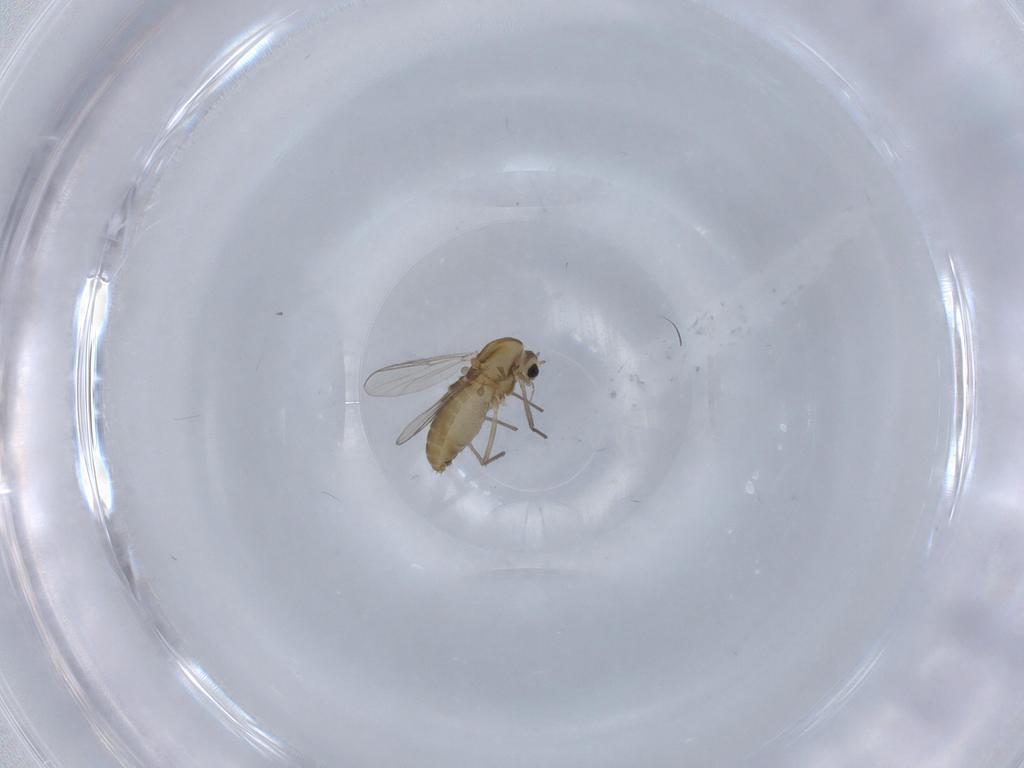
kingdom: Animalia
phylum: Arthropoda
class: Insecta
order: Diptera
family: Chironomidae
